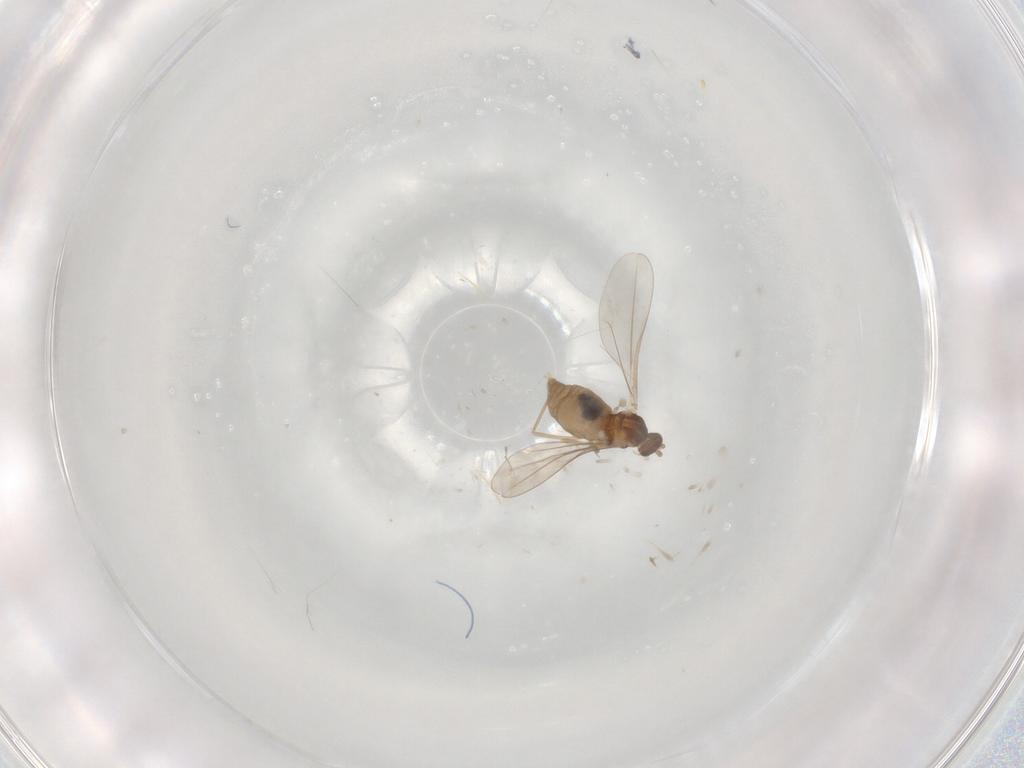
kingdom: Animalia
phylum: Arthropoda
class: Insecta
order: Diptera
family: Cecidomyiidae
